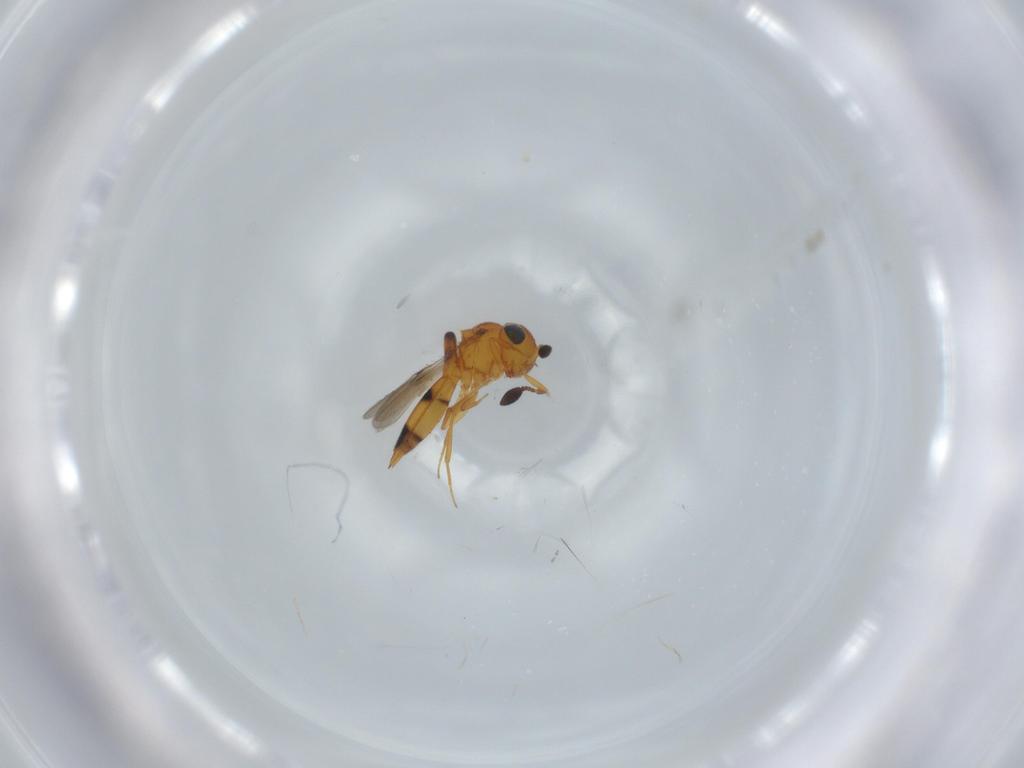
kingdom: Animalia
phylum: Arthropoda
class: Insecta
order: Hymenoptera
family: Scelionidae
